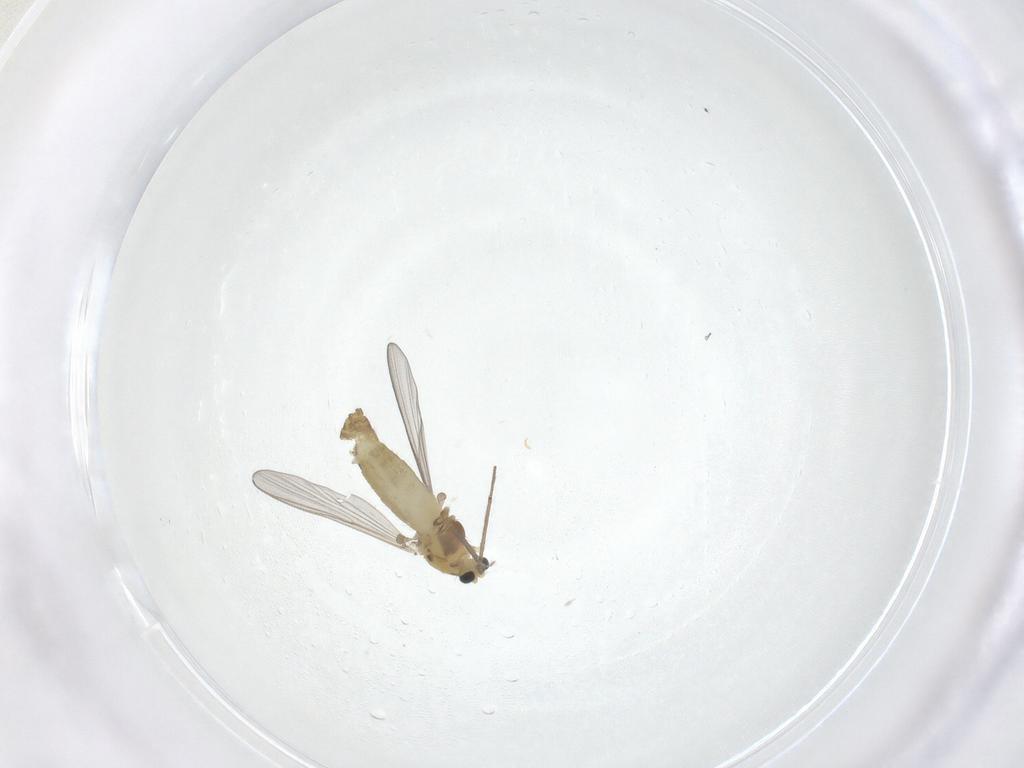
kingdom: Animalia
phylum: Arthropoda
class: Insecta
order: Diptera
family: Chironomidae
